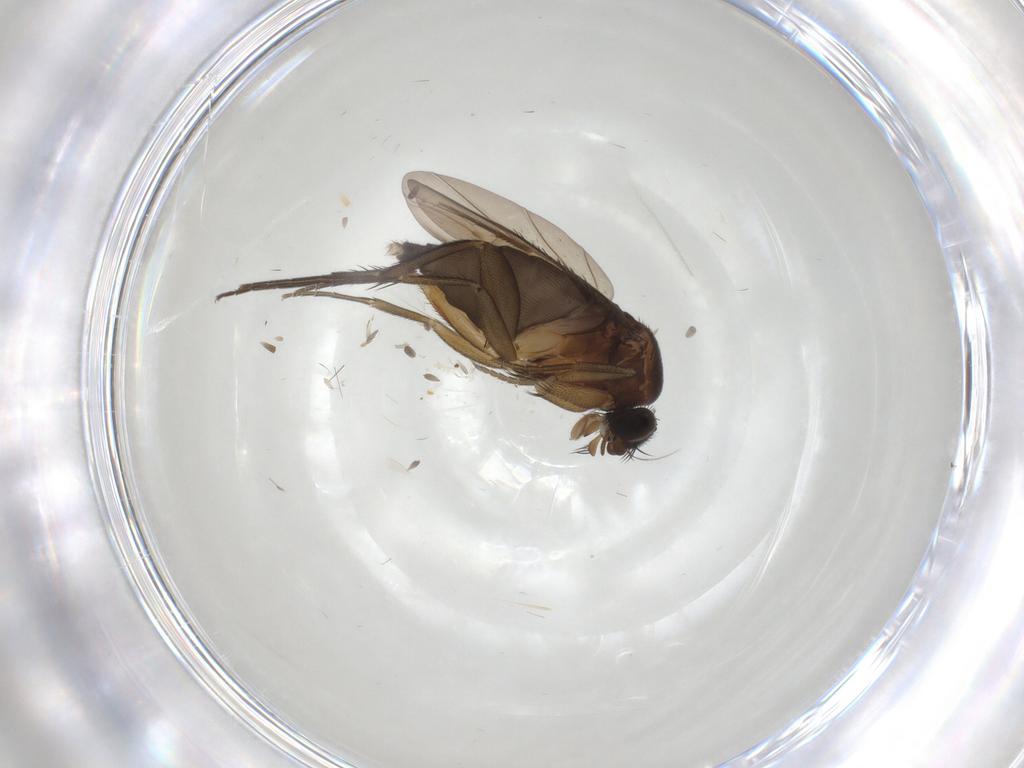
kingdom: Animalia
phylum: Arthropoda
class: Insecta
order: Diptera
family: Phoridae
